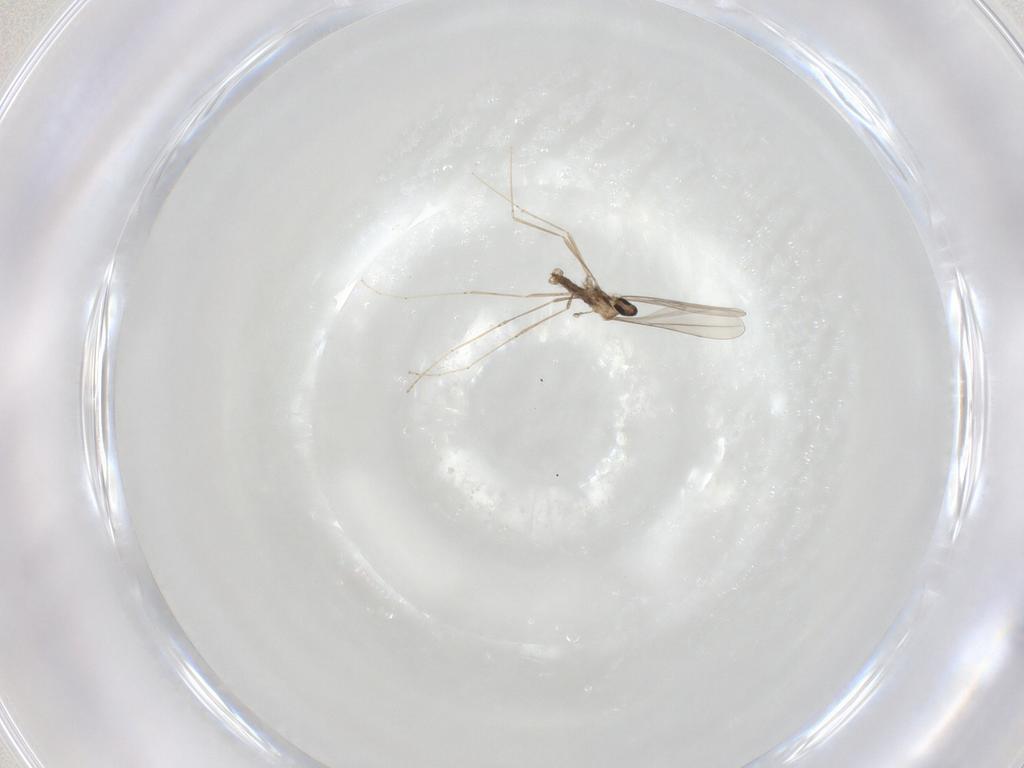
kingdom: Animalia
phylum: Arthropoda
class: Insecta
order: Diptera
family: Cecidomyiidae
